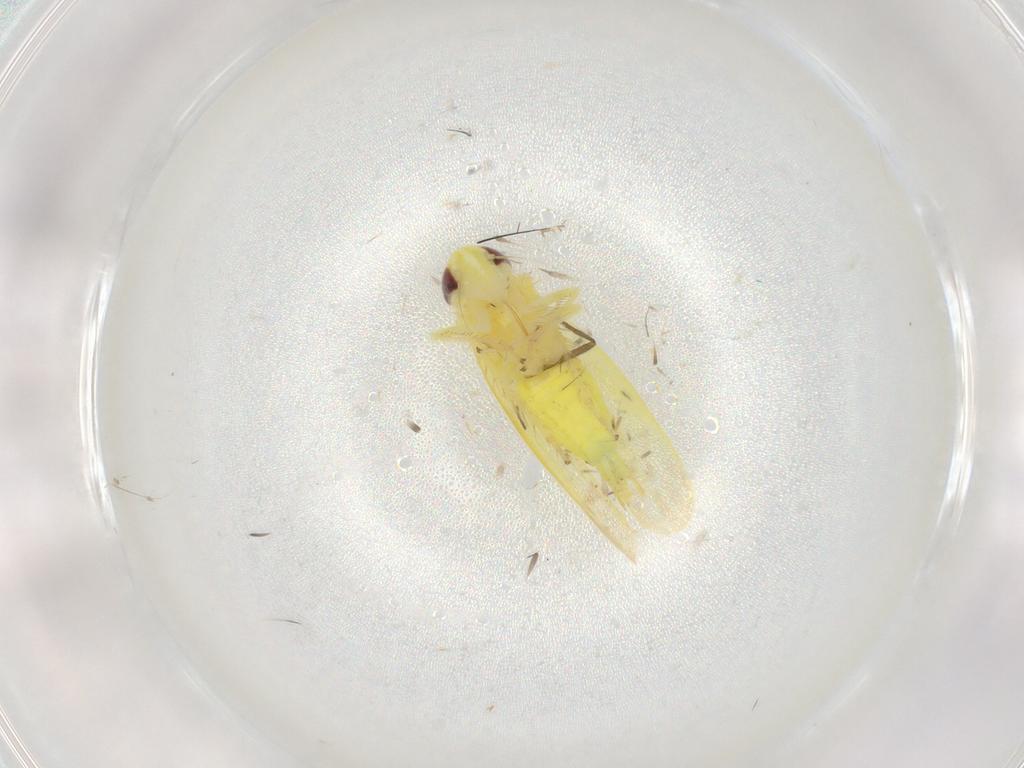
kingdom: Animalia
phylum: Arthropoda
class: Insecta
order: Hemiptera
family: Cicadellidae
